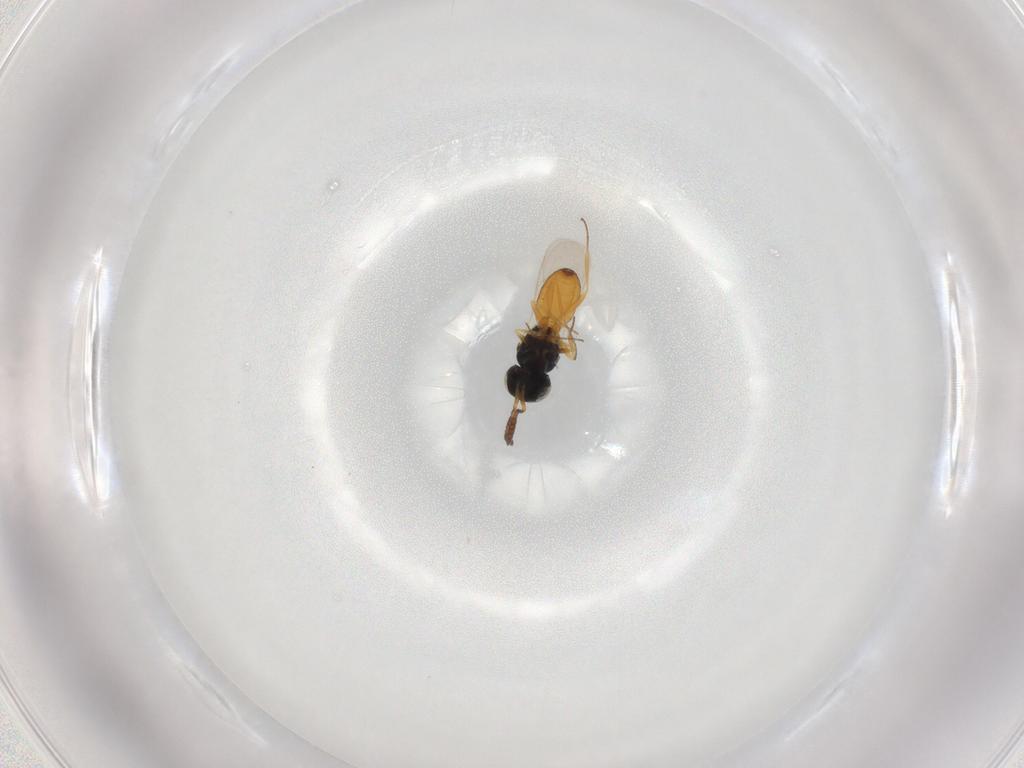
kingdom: Animalia
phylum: Arthropoda
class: Insecta
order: Hymenoptera
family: Scelionidae
